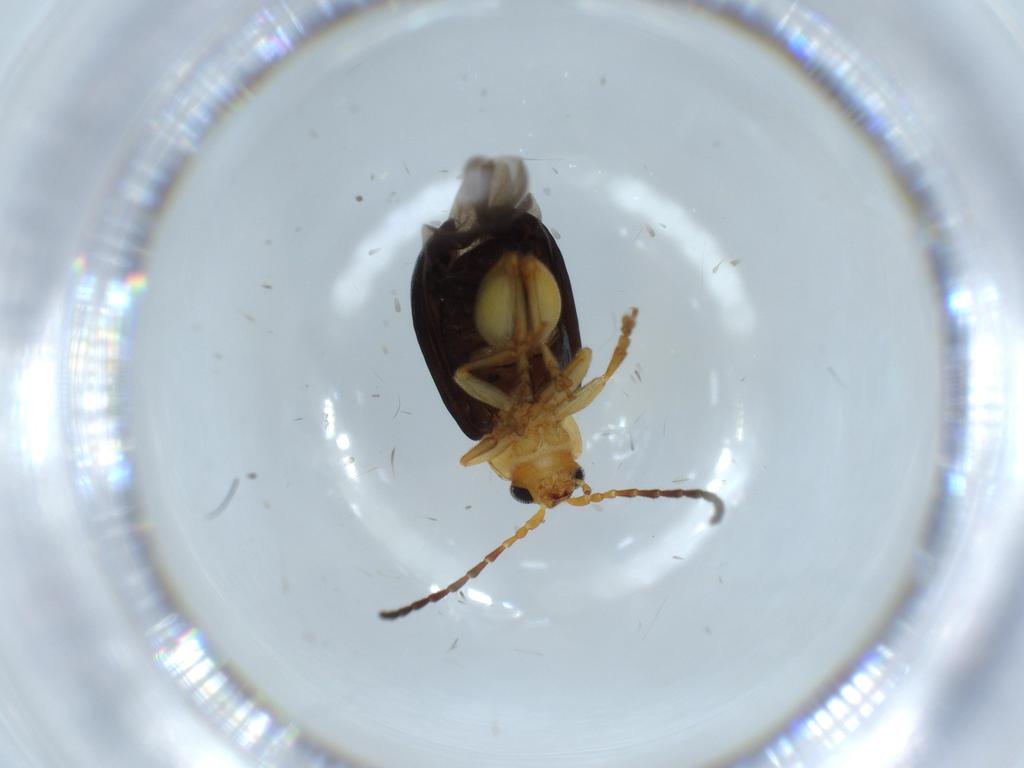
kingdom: Animalia
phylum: Arthropoda
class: Insecta
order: Coleoptera
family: Chrysomelidae
